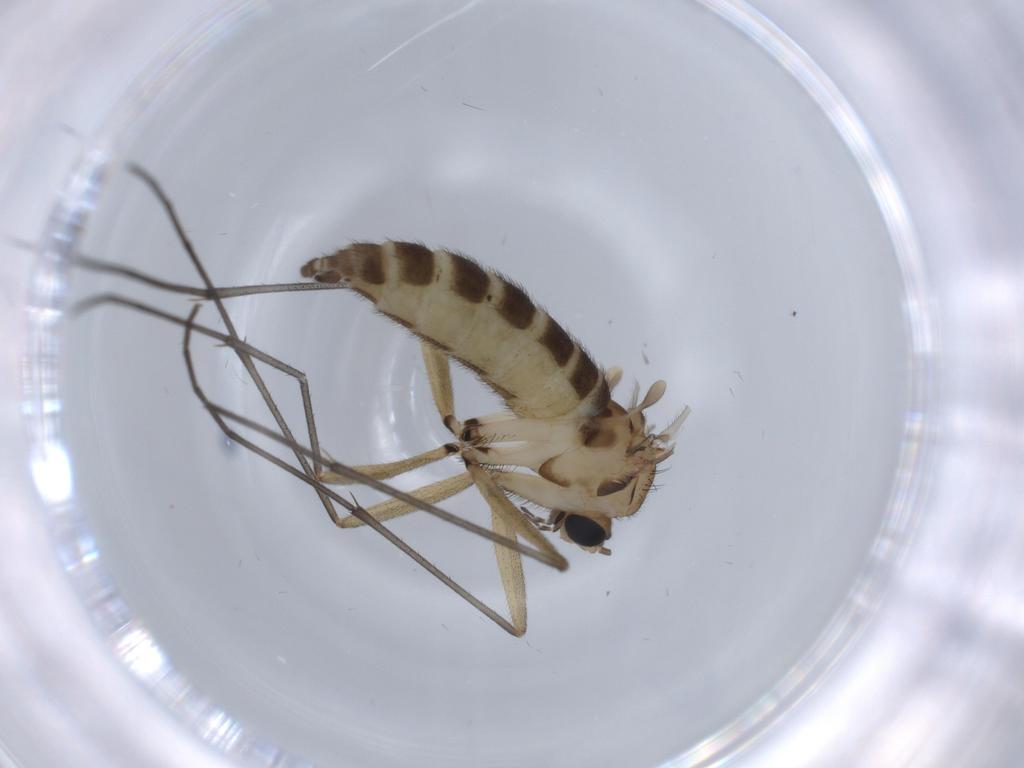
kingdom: Animalia
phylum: Arthropoda
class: Insecta
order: Diptera
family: Sciaridae
